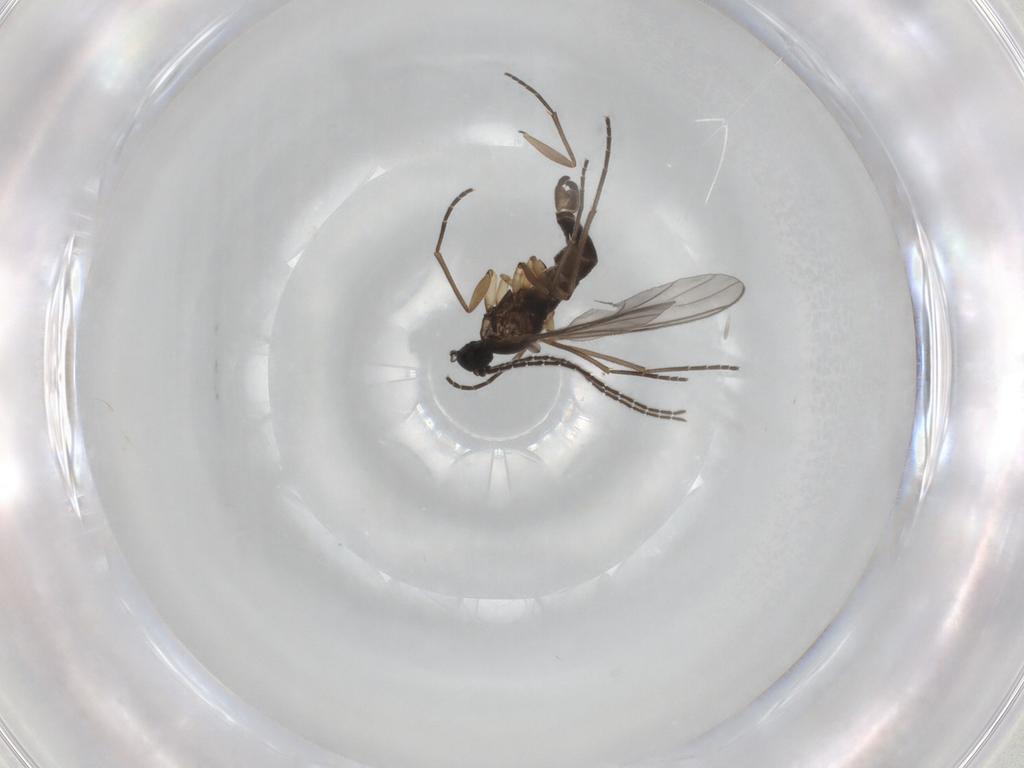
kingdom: Animalia
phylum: Arthropoda
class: Insecta
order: Diptera
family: Sciaridae
